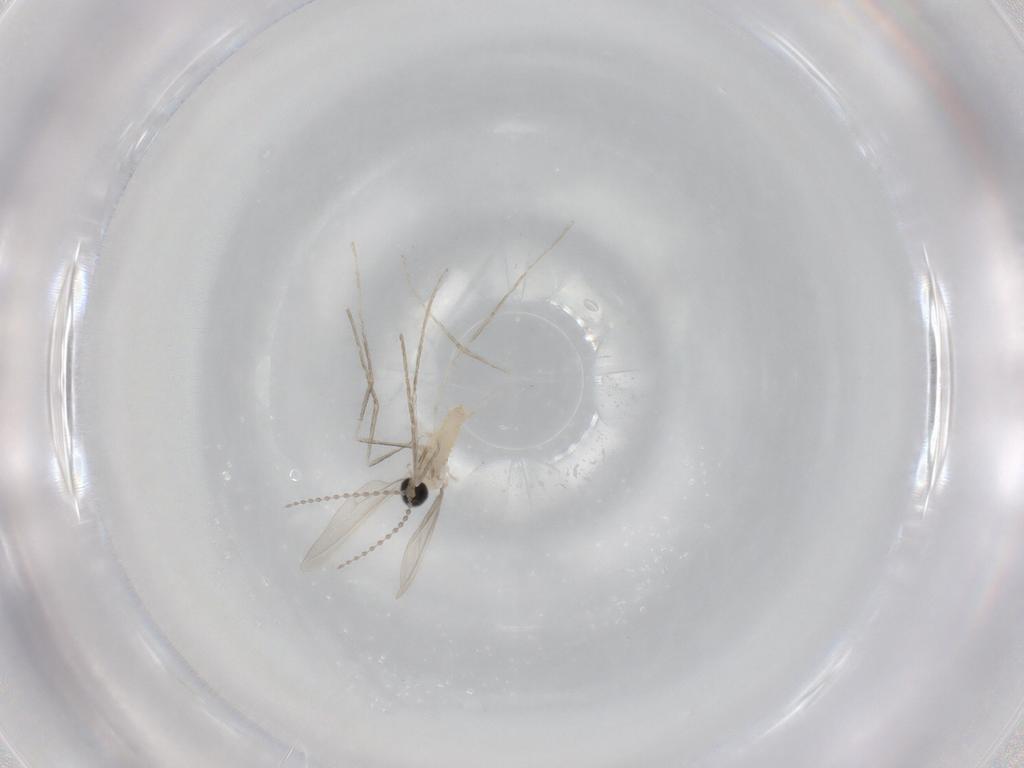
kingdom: Animalia
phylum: Arthropoda
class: Insecta
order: Diptera
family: Cecidomyiidae
